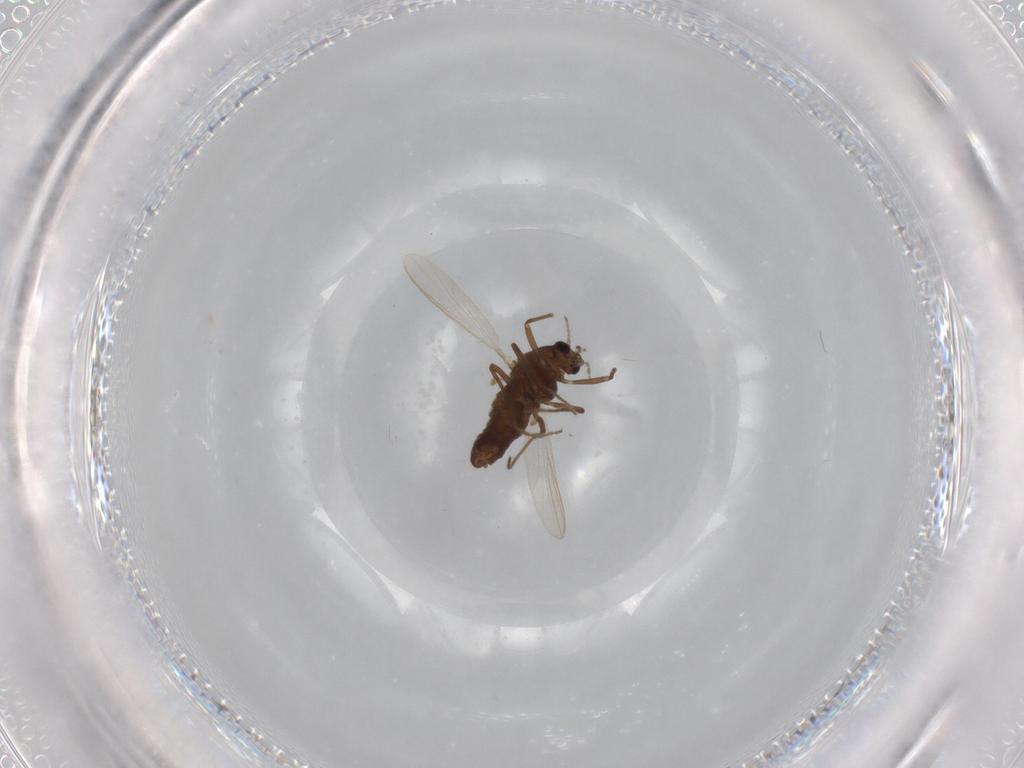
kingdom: Animalia
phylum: Arthropoda
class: Insecta
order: Diptera
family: Chironomidae
